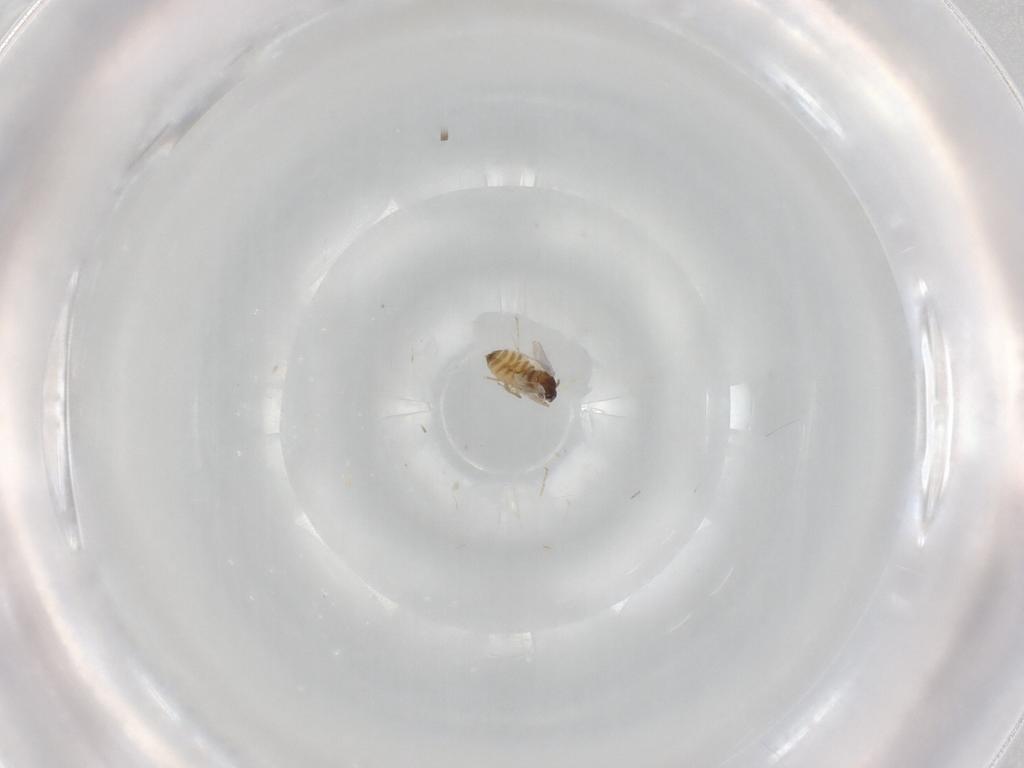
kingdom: Animalia
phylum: Arthropoda
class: Insecta
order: Diptera
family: Cecidomyiidae
